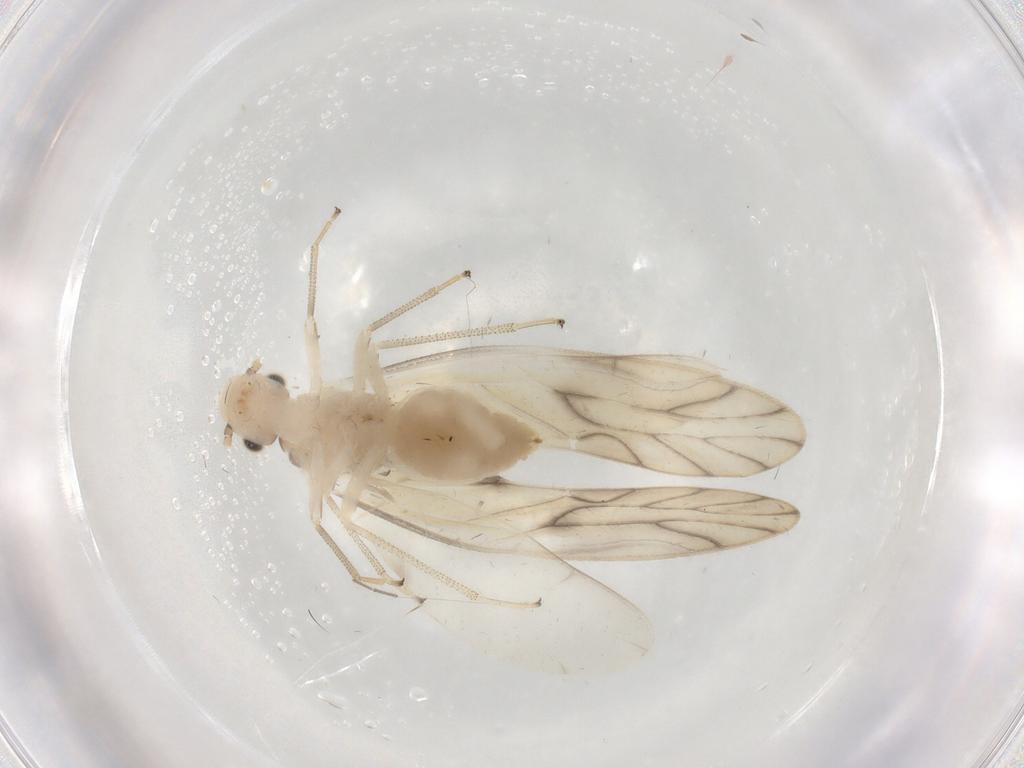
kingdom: Animalia
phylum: Arthropoda
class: Insecta
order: Psocodea
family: Caeciliusidae
